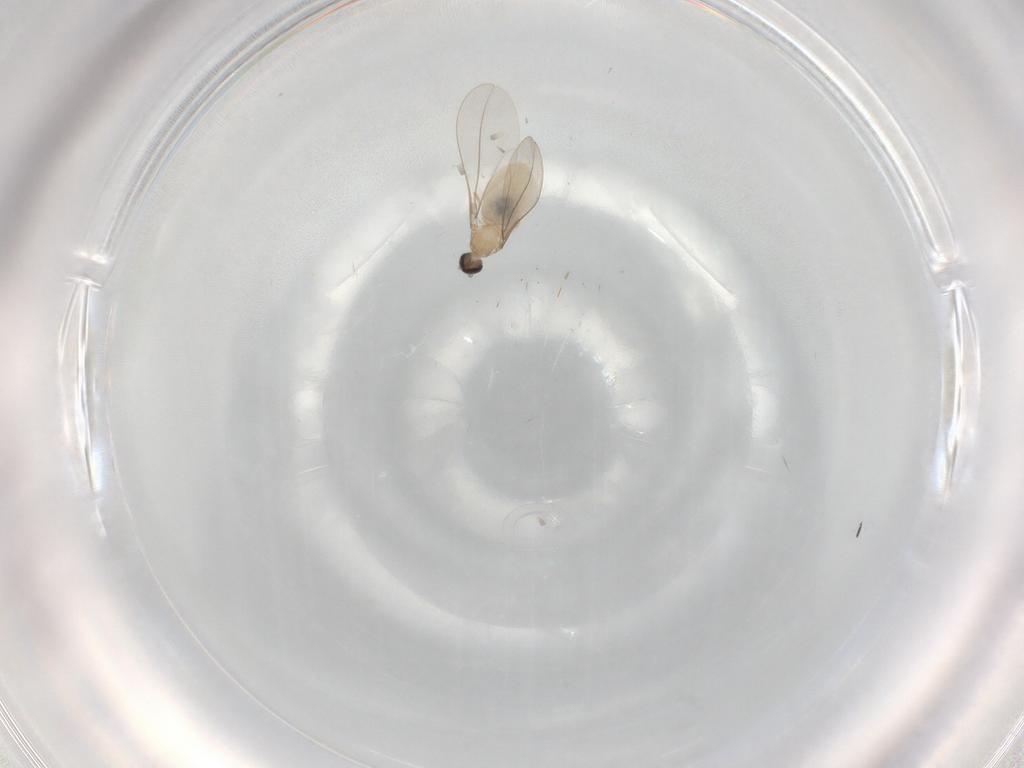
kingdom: Animalia
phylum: Arthropoda
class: Insecta
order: Diptera
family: Cecidomyiidae
